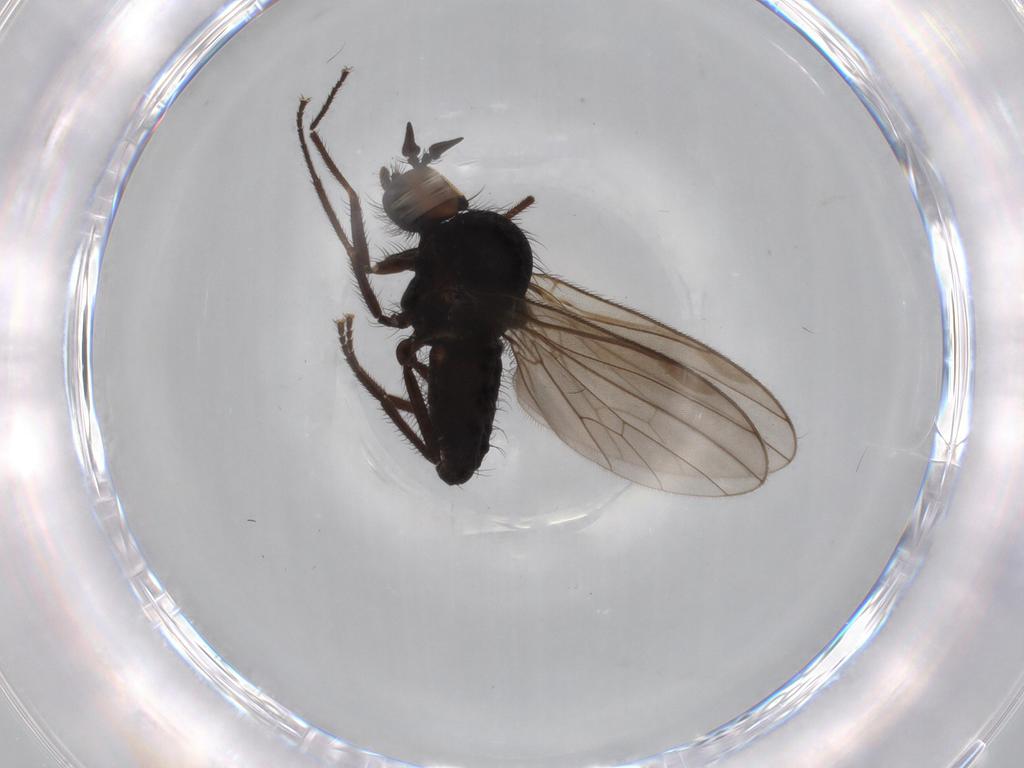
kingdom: Animalia
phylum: Arthropoda
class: Insecta
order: Diptera
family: Dolichopodidae
